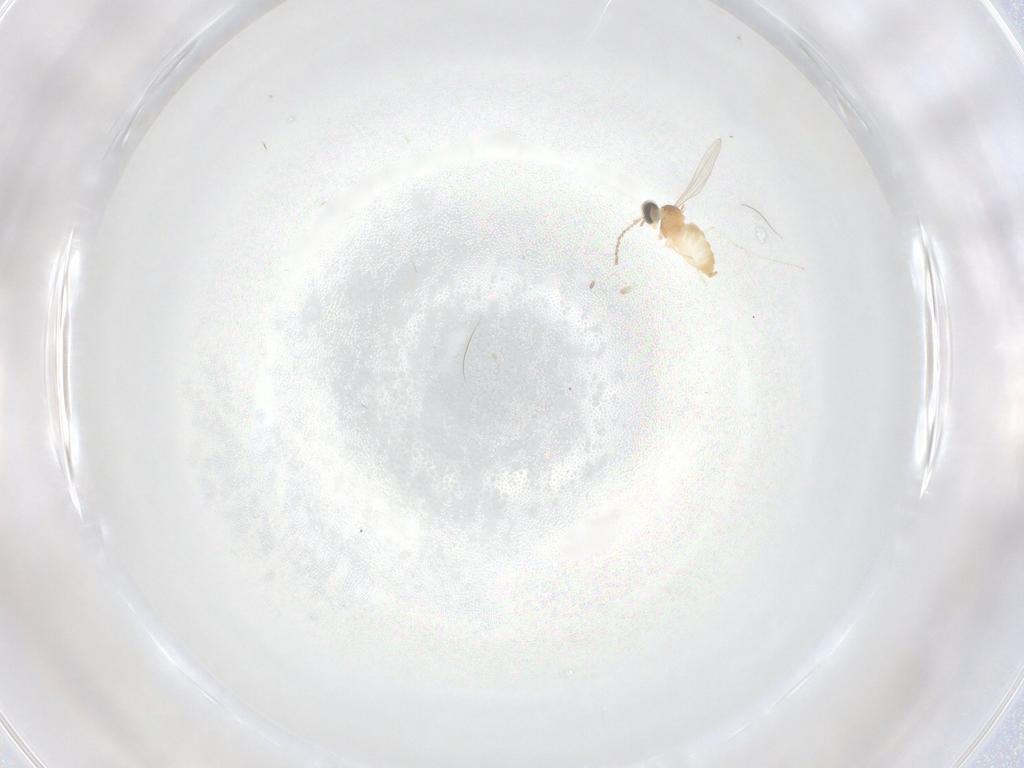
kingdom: Animalia
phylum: Arthropoda
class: Insecta
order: Diptera
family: Cecidomyiidae
